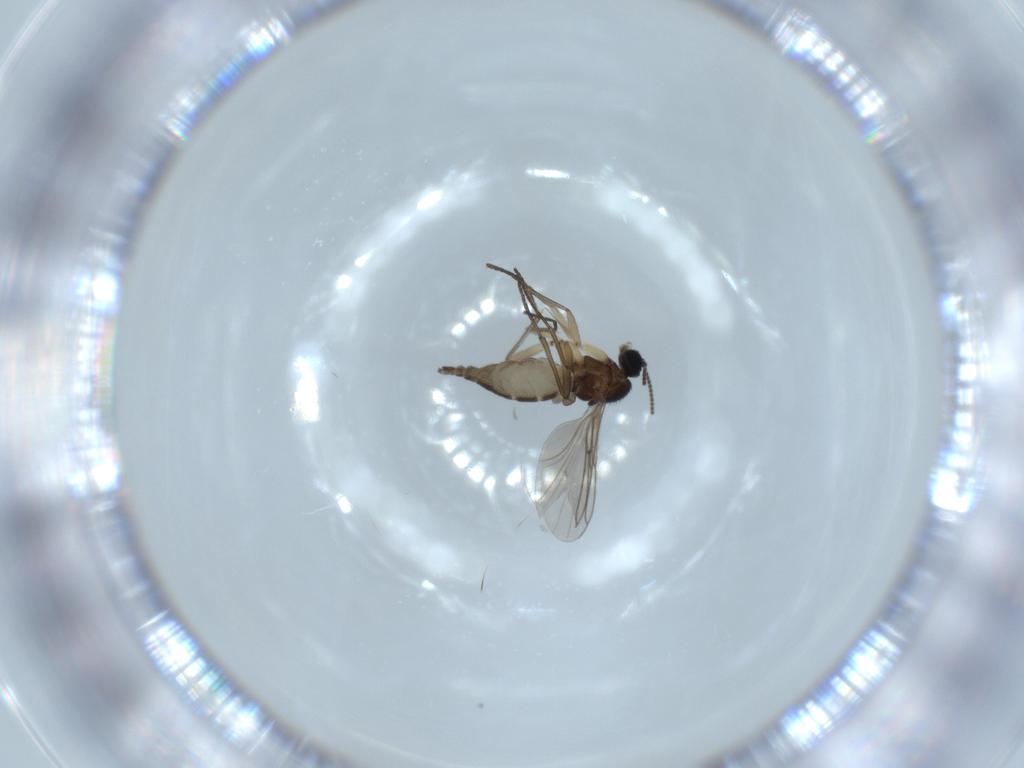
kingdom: Animalia
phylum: Arthropoda
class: Insecta
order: Diptera
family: Sciaridae
